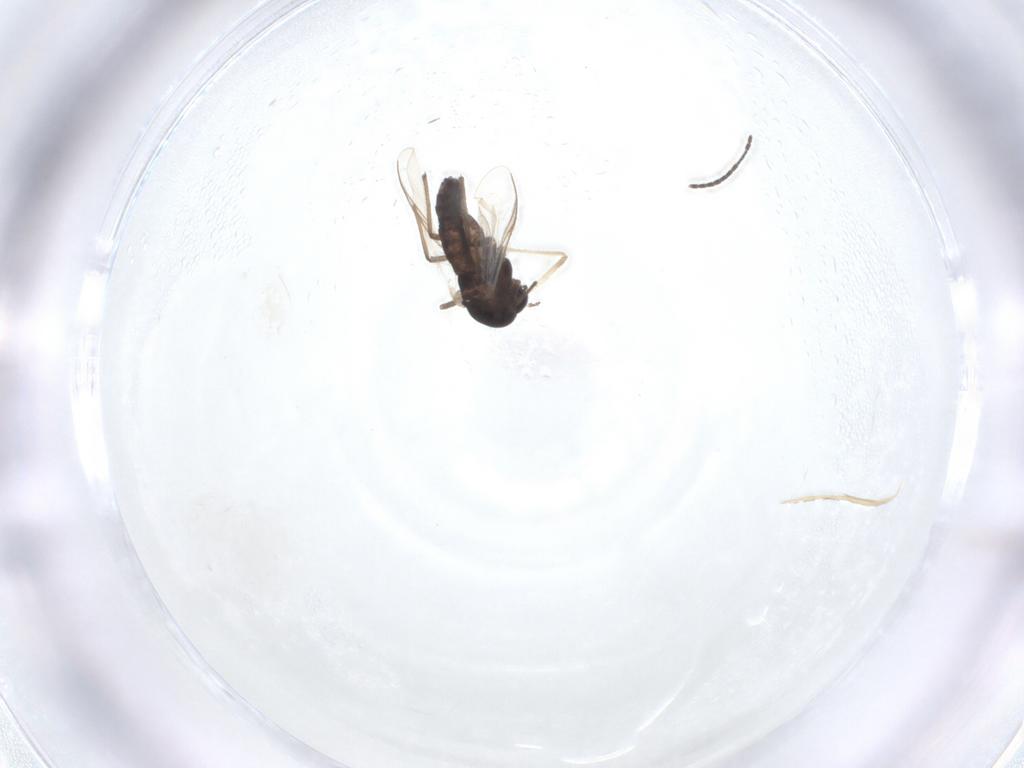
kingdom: Animalia
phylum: Arthropoda
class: Insecta
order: Diptera
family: Chironomidae
